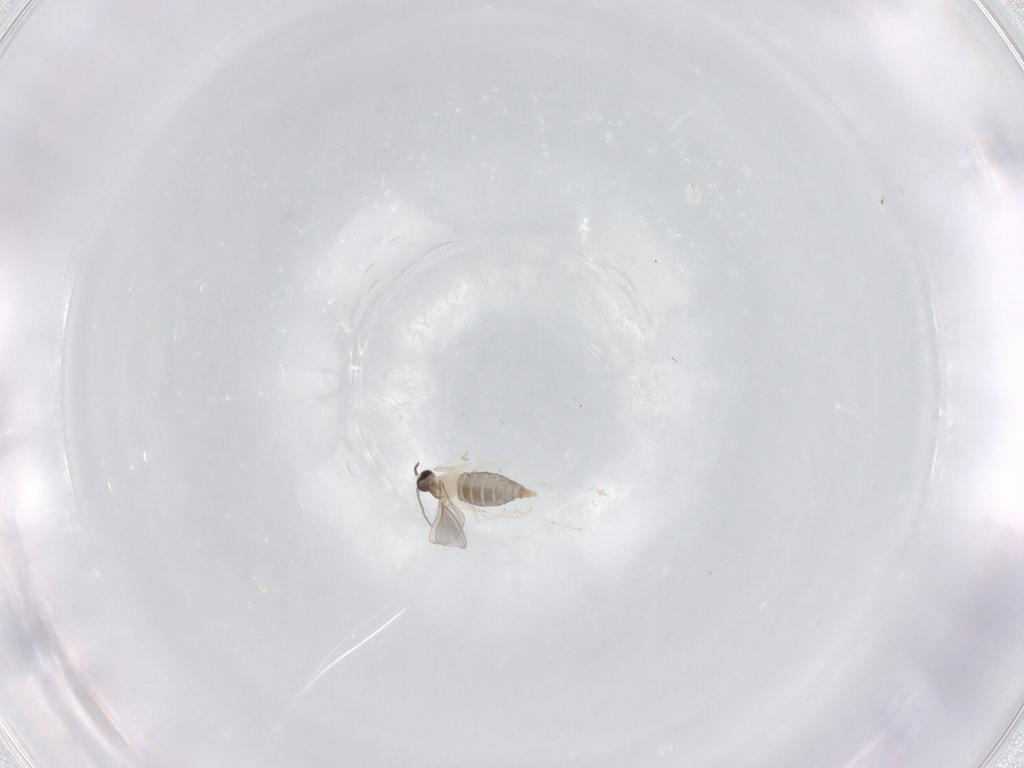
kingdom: Animalia
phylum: Arthropoda
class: Insecta
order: Diptera
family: Cecidomyiidae
